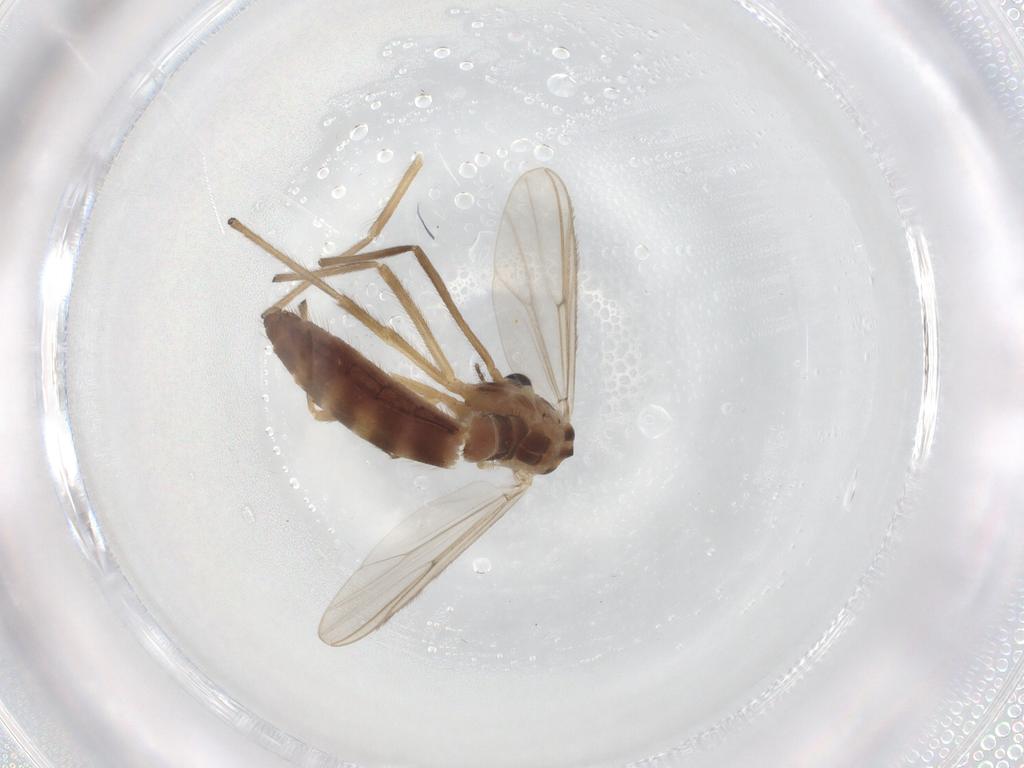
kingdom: Animalia
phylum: Arthropoda
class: Insecta
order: Diptera
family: Chironomidae
